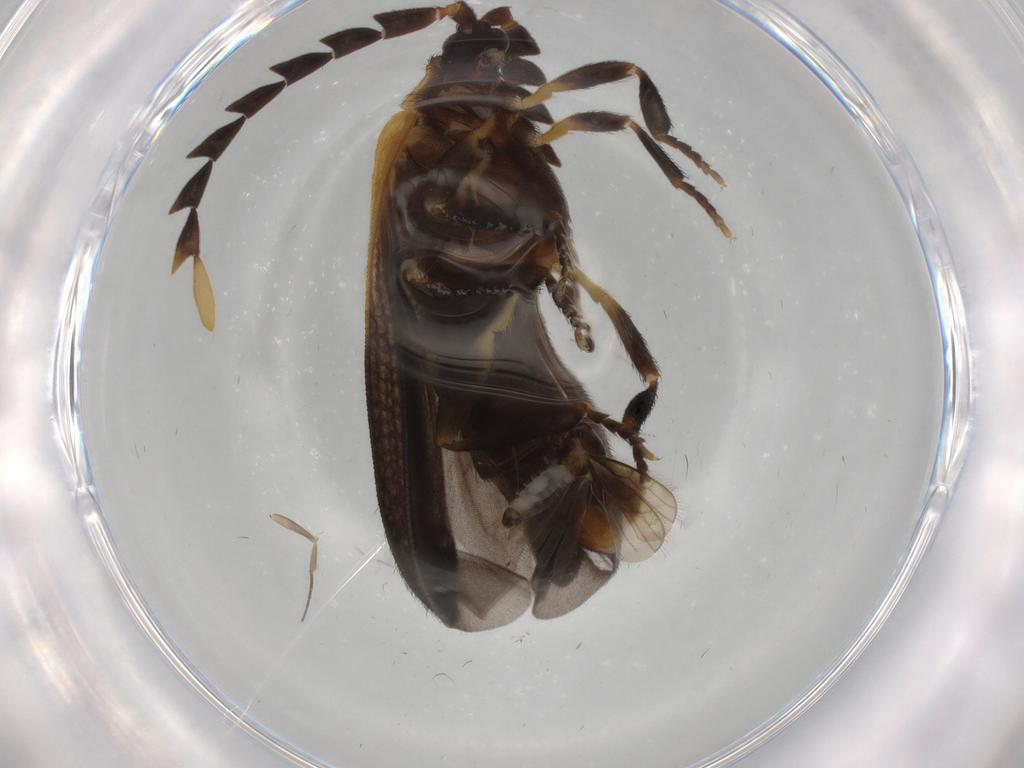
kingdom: Animalia
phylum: Arthropoda
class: Insecta
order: Coleoptera
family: Lycidae
